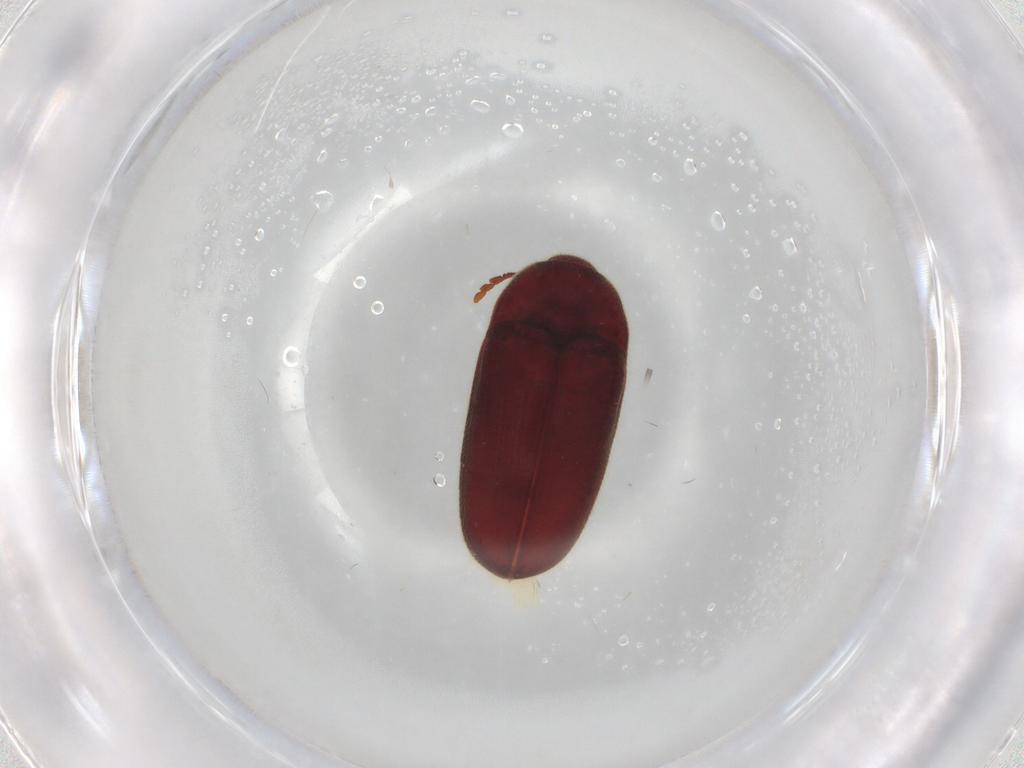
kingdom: Animalia
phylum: Arthropoda
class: Insecta
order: Coleoptera
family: Throscidae
